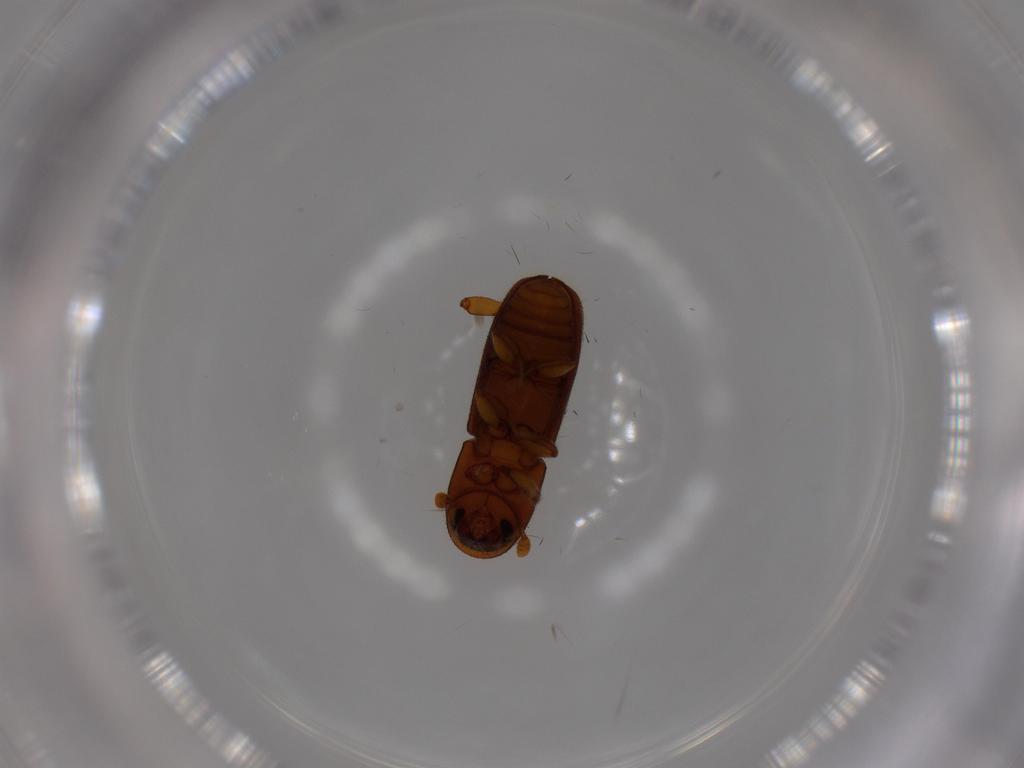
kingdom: Animalia
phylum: Arthropoda
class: Insecta
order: Coleoptera
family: Curculionidae
